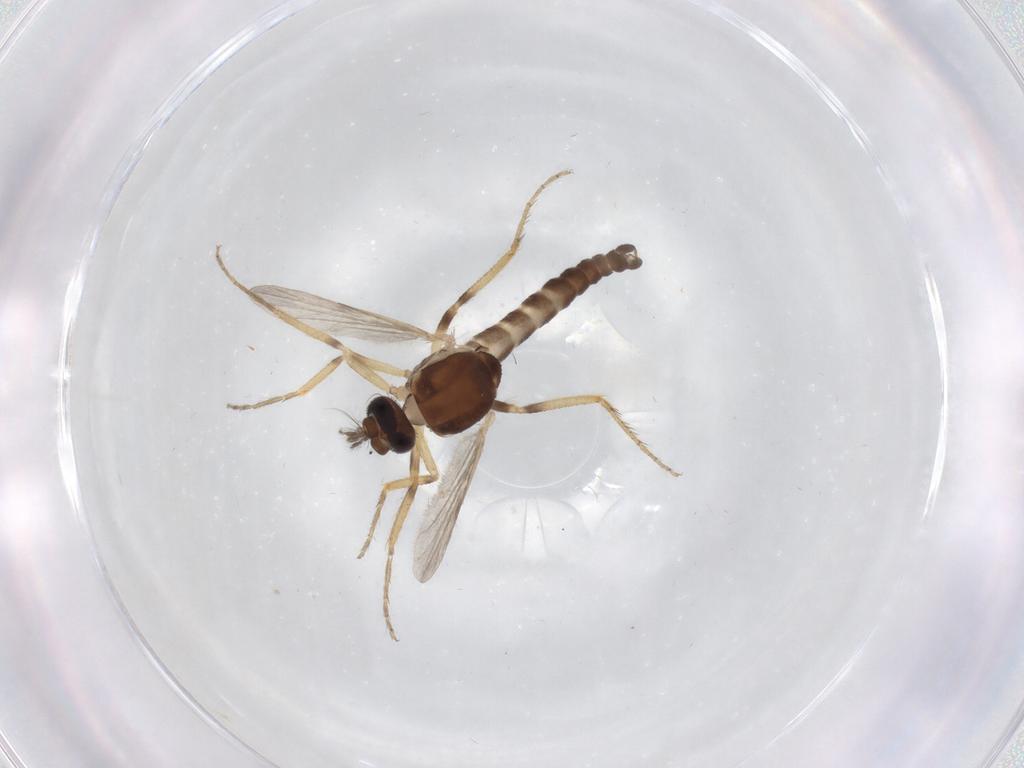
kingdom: Animalia
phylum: Arthropoda
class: Insecta
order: Diptera
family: Ceratopogonidae
